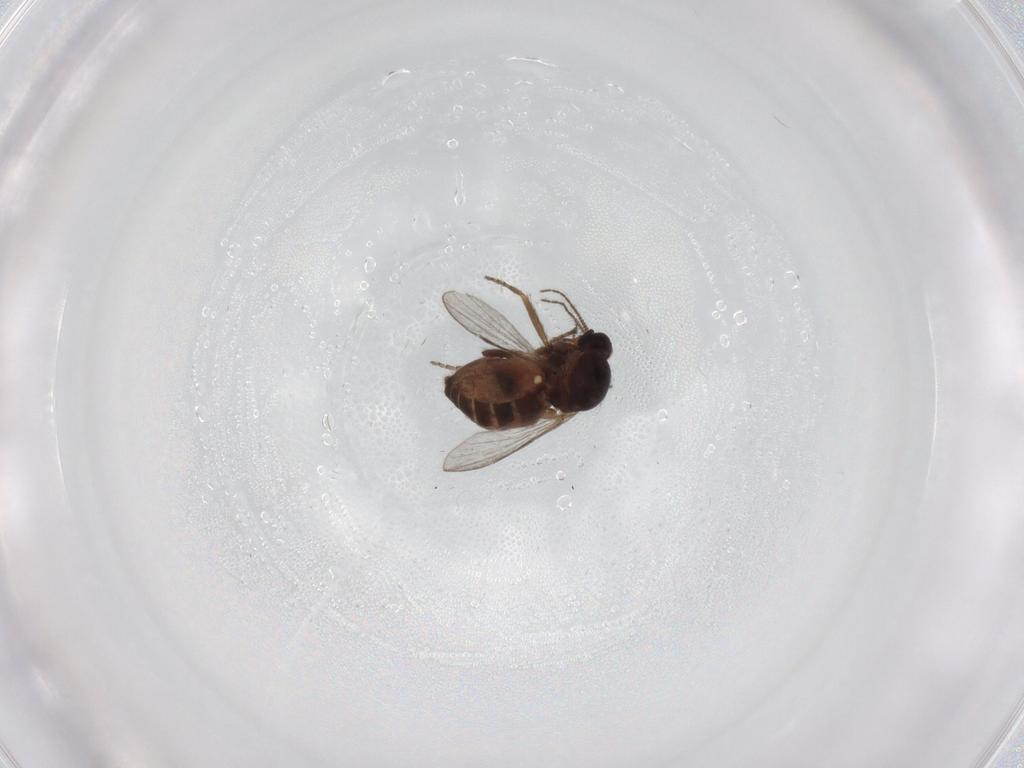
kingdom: Animalia
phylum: Arthropoda
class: Insecta
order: Diptera
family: Ceratopogonidae
